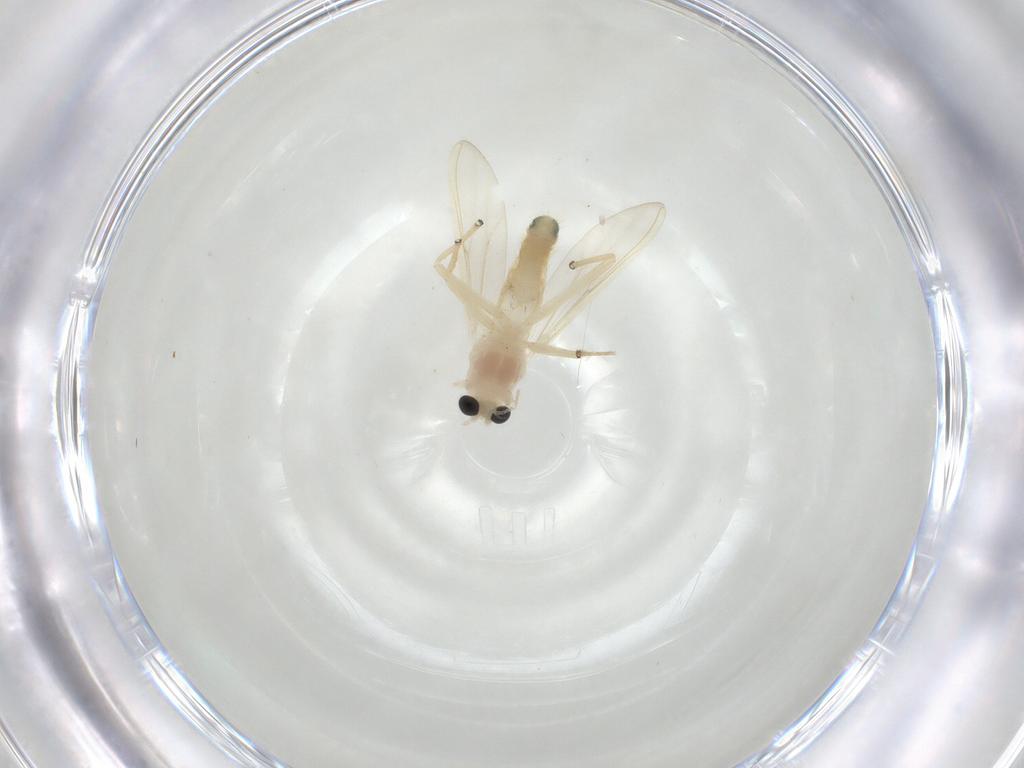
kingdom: Animalia
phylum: Arthropoda
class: Insecta
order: Diptera
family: Chironomidae
